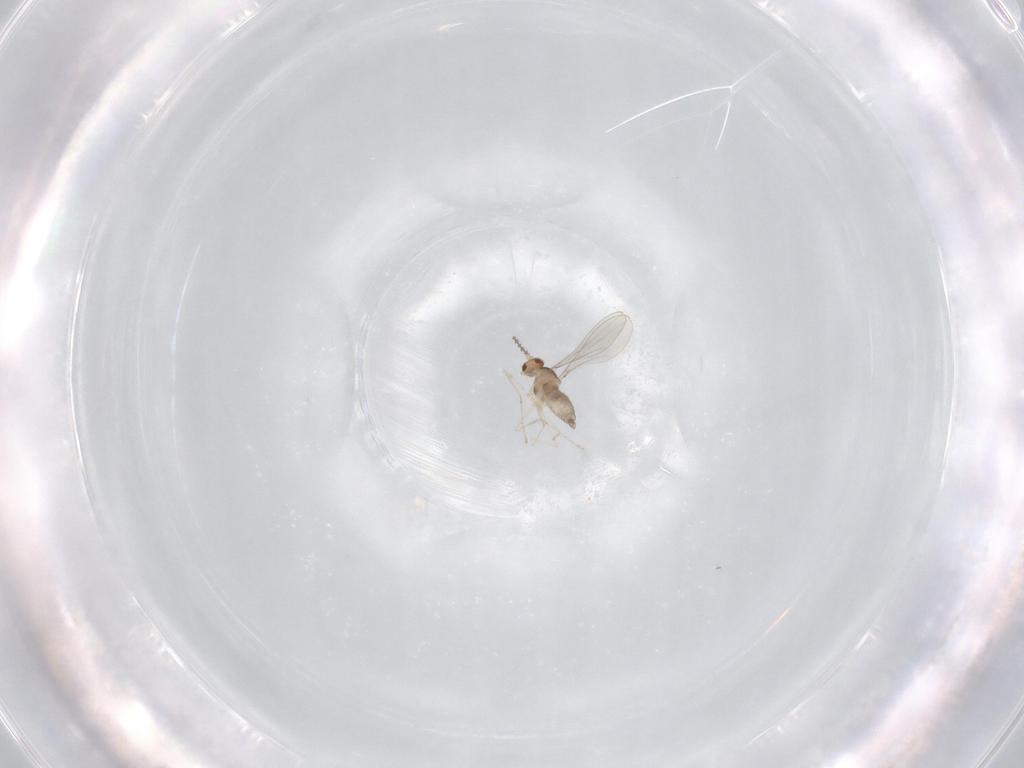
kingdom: Animalia
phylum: Arthropoda
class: Insecta
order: Diptera
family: Cecidomyiidae
